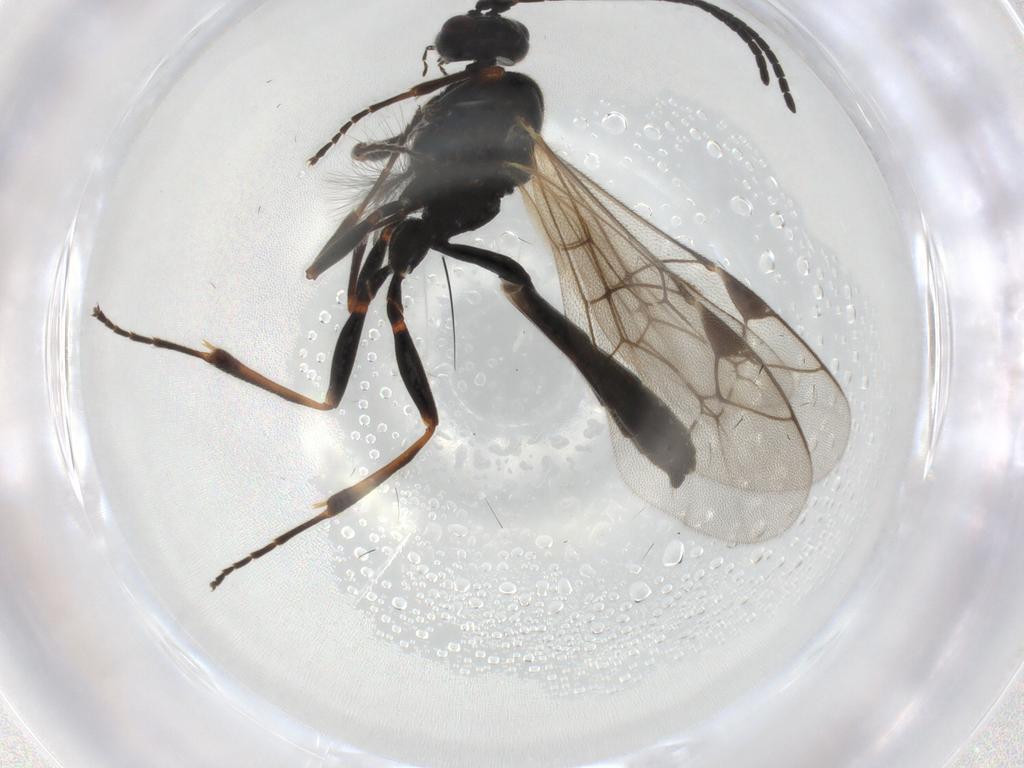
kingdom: Animalia
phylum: Arthropoda
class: Insecta
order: Hymenoptera
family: Ichneumonidae
